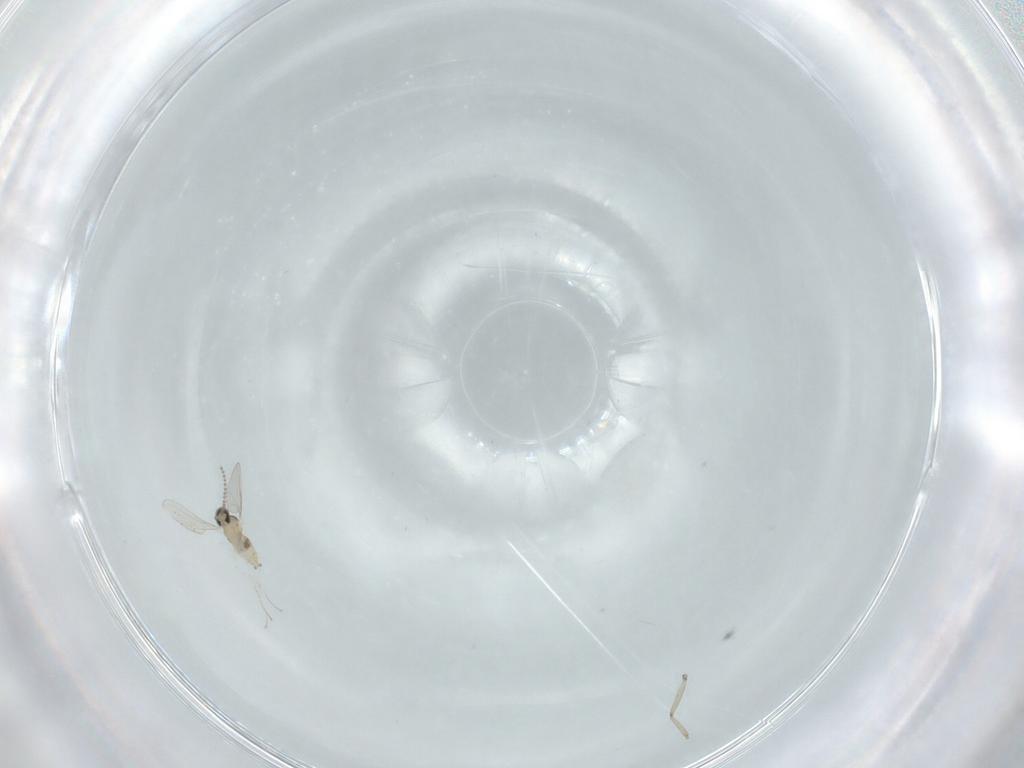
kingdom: Animalia
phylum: Arthropoda
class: Insecta
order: Diptera
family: Cecidomyiidae
